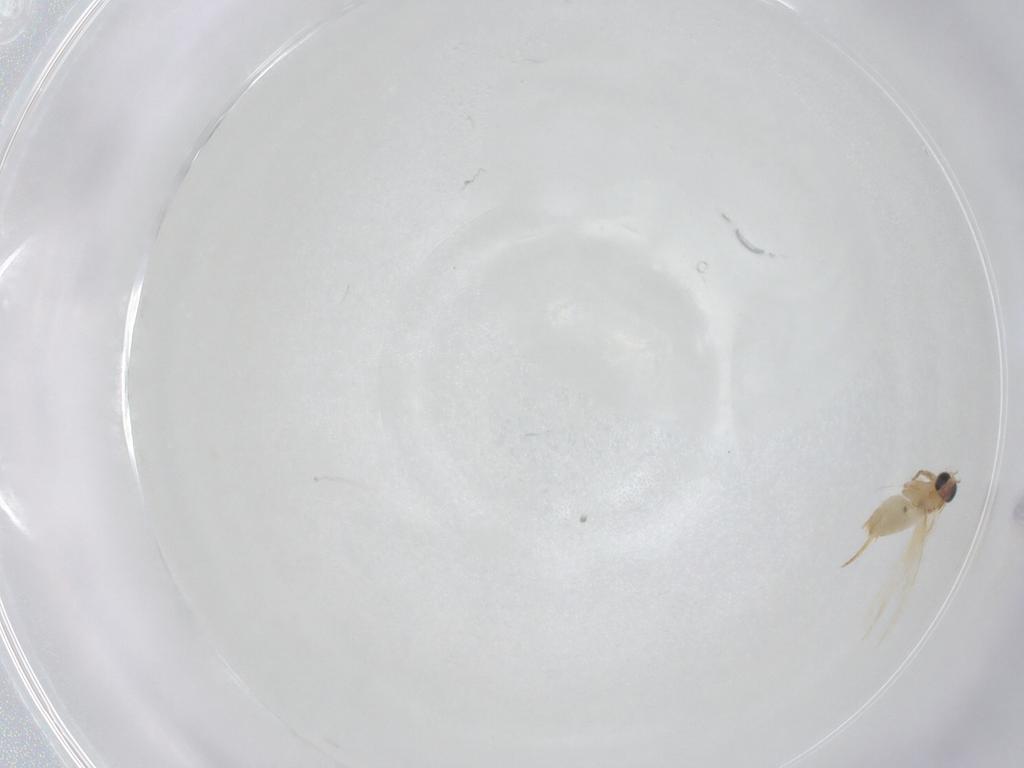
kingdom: Animalia
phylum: Arthropoda
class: Insecta
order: Lepidoptera
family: Crambidae
